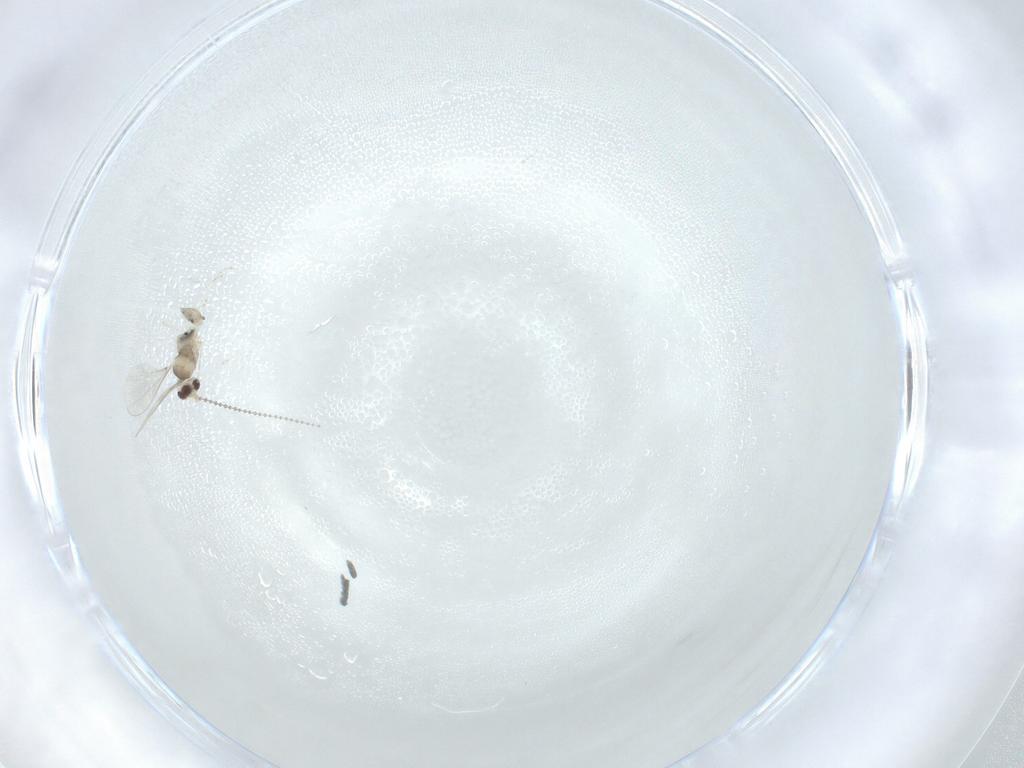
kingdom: Animalia
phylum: Arthropoda
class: Insecta
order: Diptera
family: Cecidomyiidae
